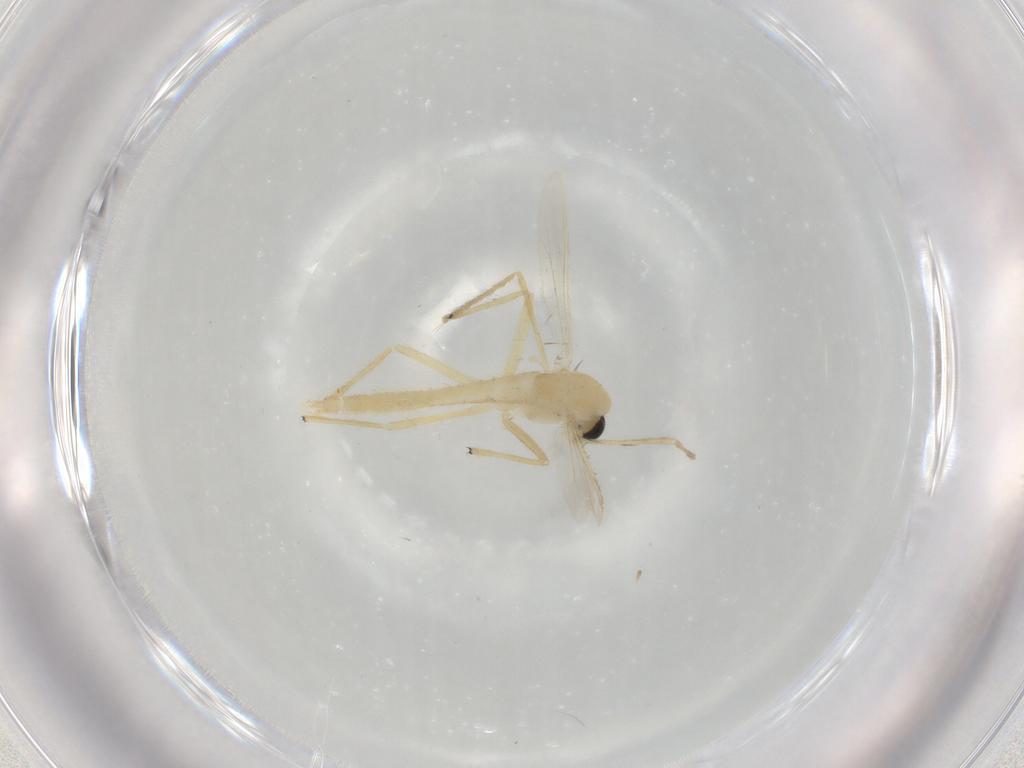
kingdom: Animalia
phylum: Arthropoda
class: Insecta
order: Diptera
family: Chironomidae
